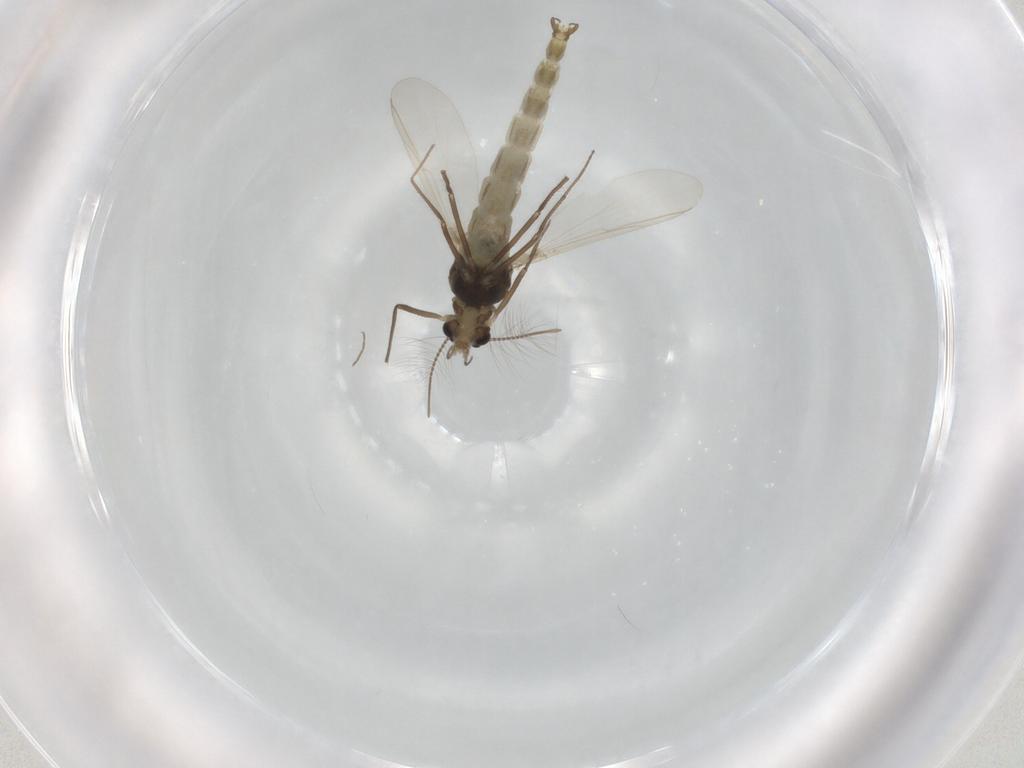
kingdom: Animalia
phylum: Arthropoda
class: Insecta
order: Diptera
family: Chironomidae
